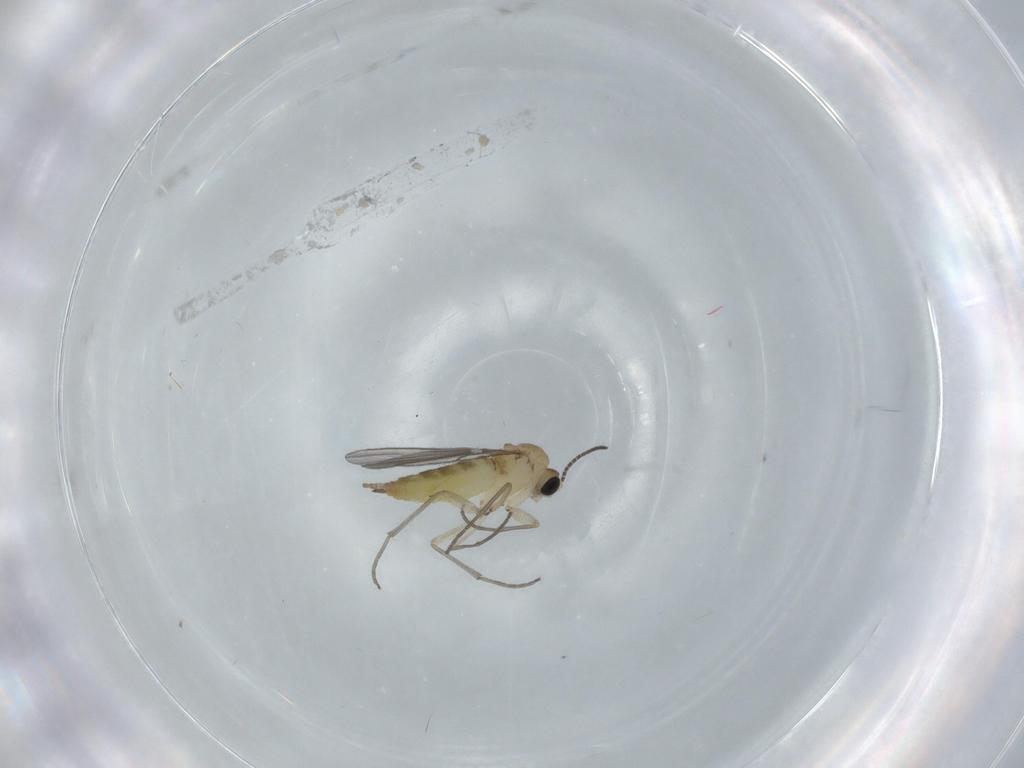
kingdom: Animalia
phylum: Arthropoda
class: Insecta
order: Diptera
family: Sciaridae
